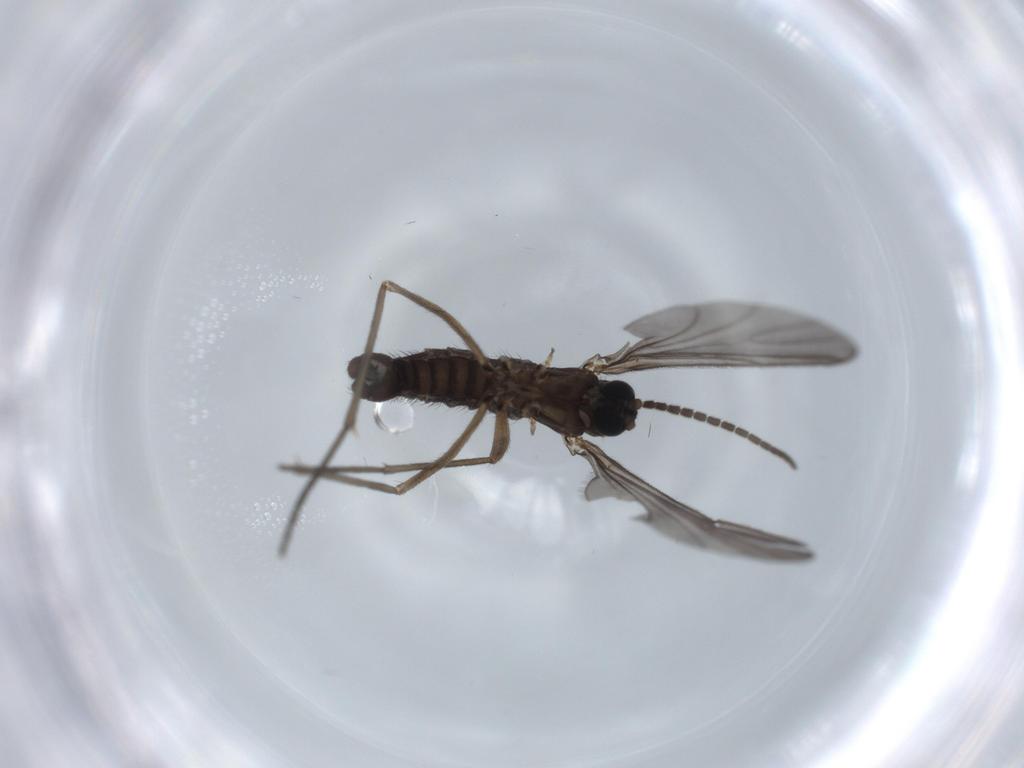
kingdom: Animalia
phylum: Arthropoda
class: Insecta
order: Diptera
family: Sciaridae
